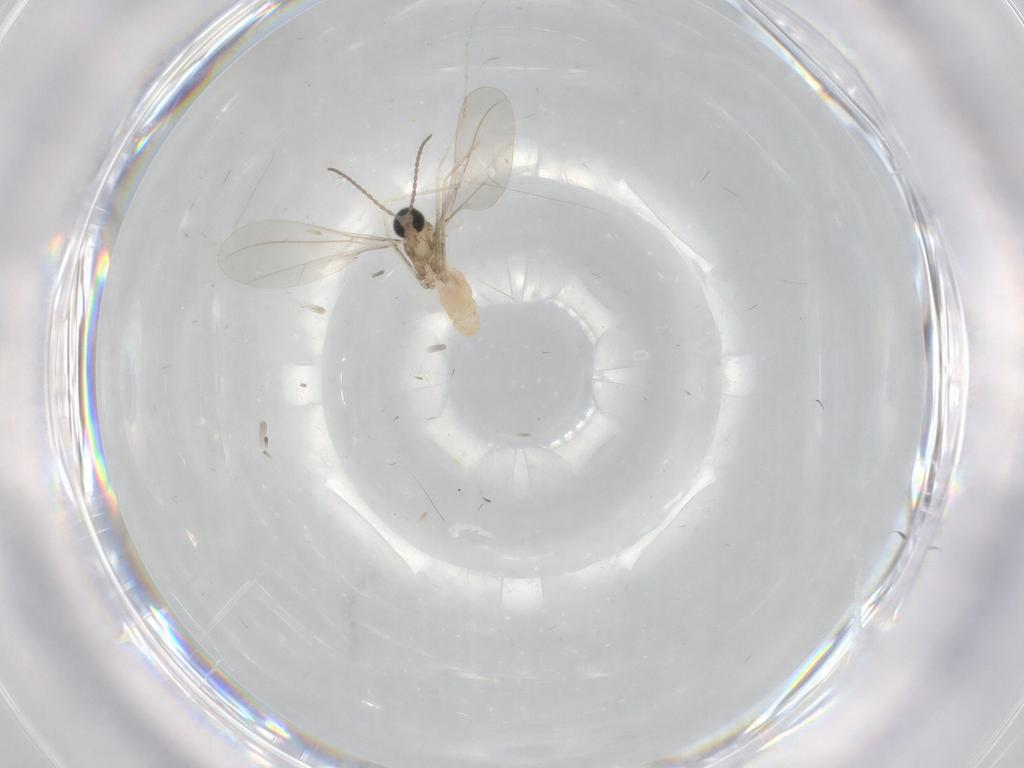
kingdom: Animalia
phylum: Arthropoda
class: Insecta
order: Diptera
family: Cecidomyiidae
